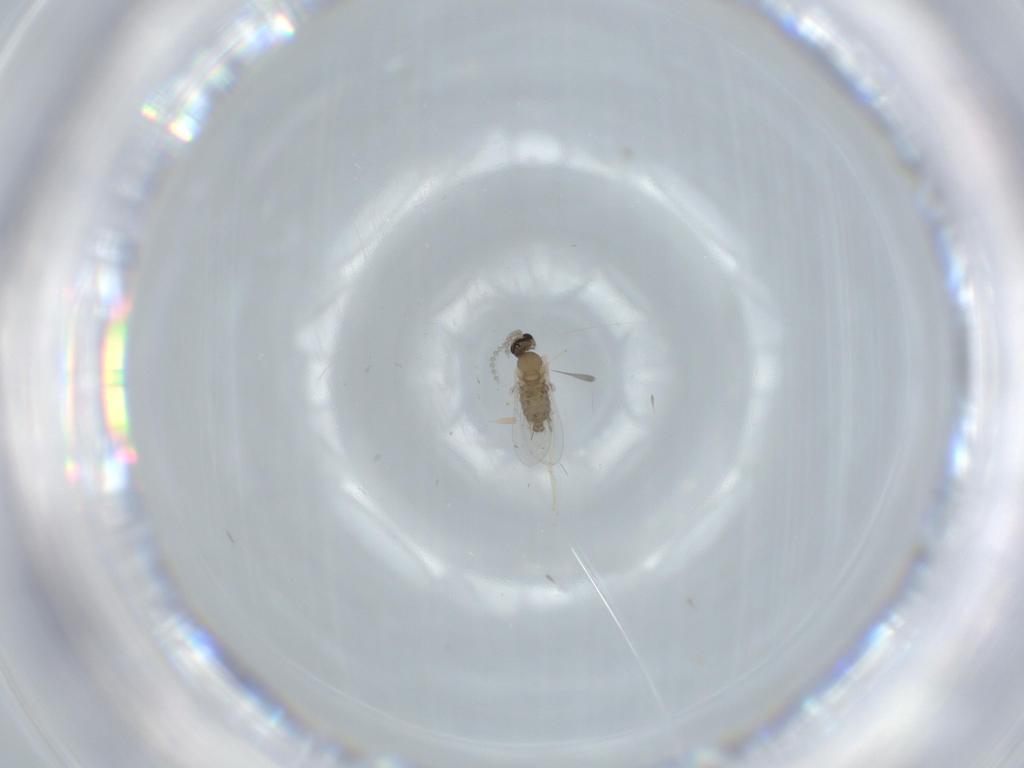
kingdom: Animalia
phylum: Arthropoda
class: Insecta
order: Diptera
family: Cecidomyiidae
